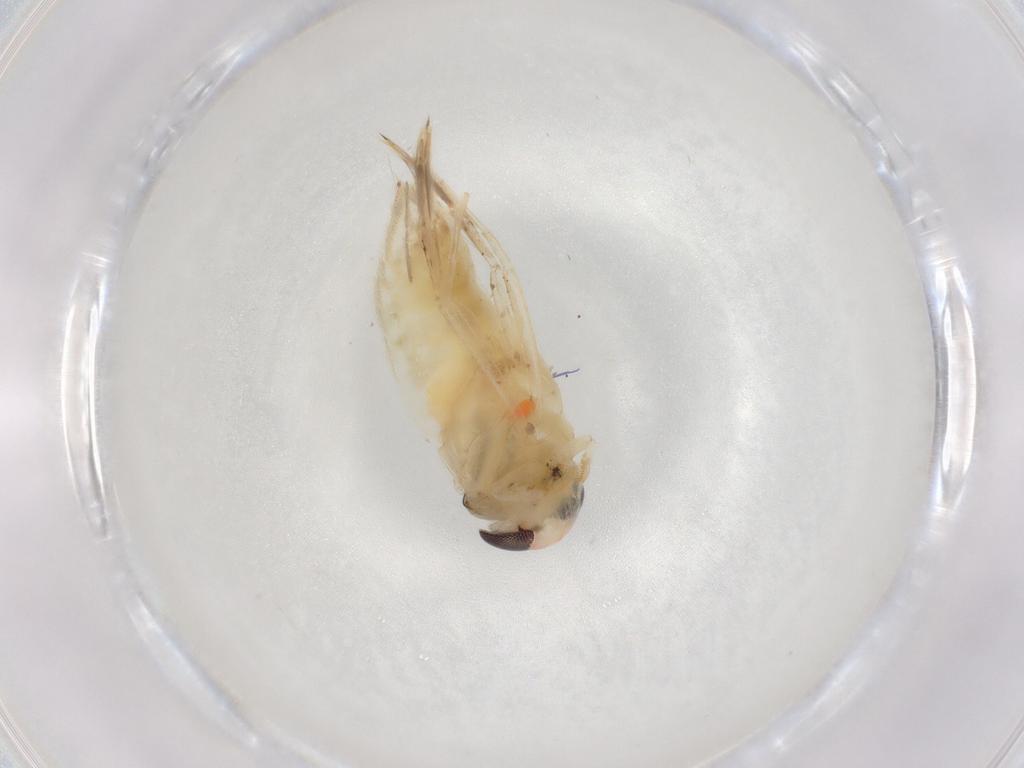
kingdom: Animalia
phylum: Arthropoda
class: Insecta
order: Hemiptera
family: Corixidae
